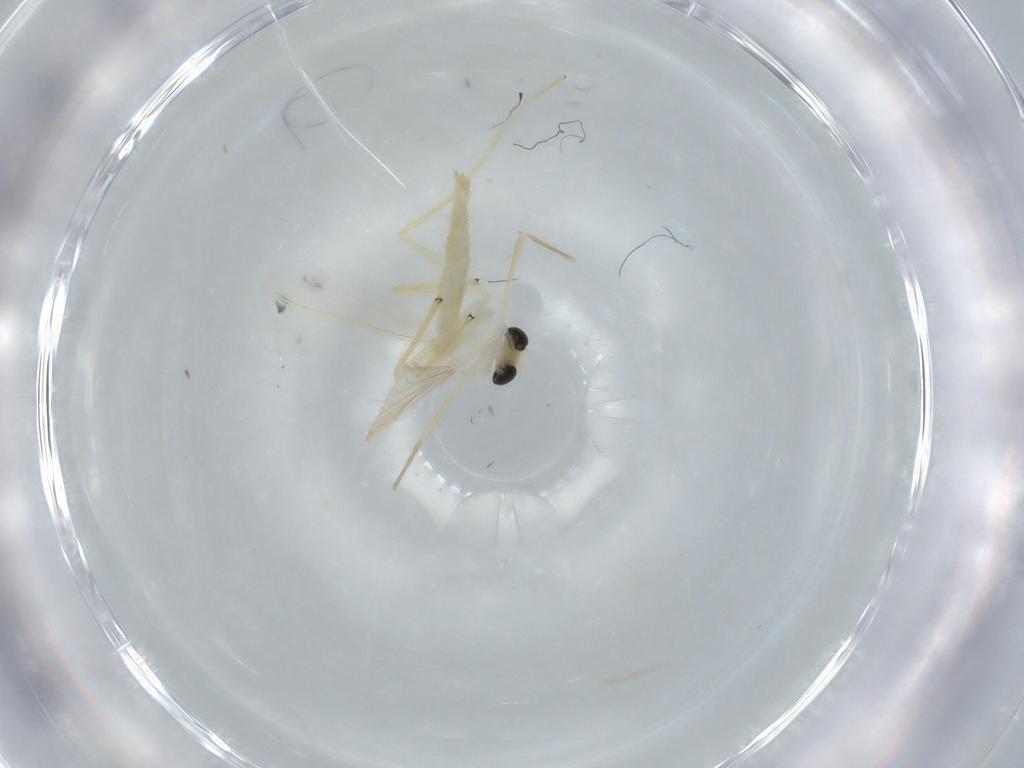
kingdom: Animalia
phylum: Arthropoda
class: Insecta
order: Diptera
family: Chironomidae
